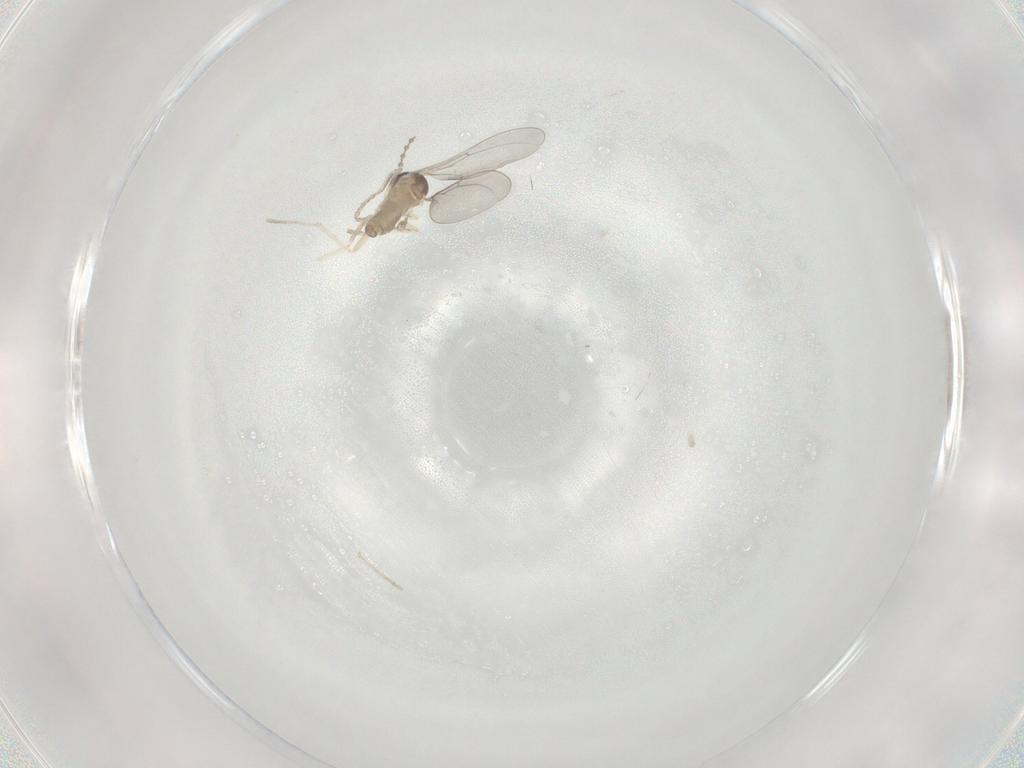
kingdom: Animalia
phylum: Arthropoda
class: Insecta
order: Diptera
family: Cecidomyiidae
